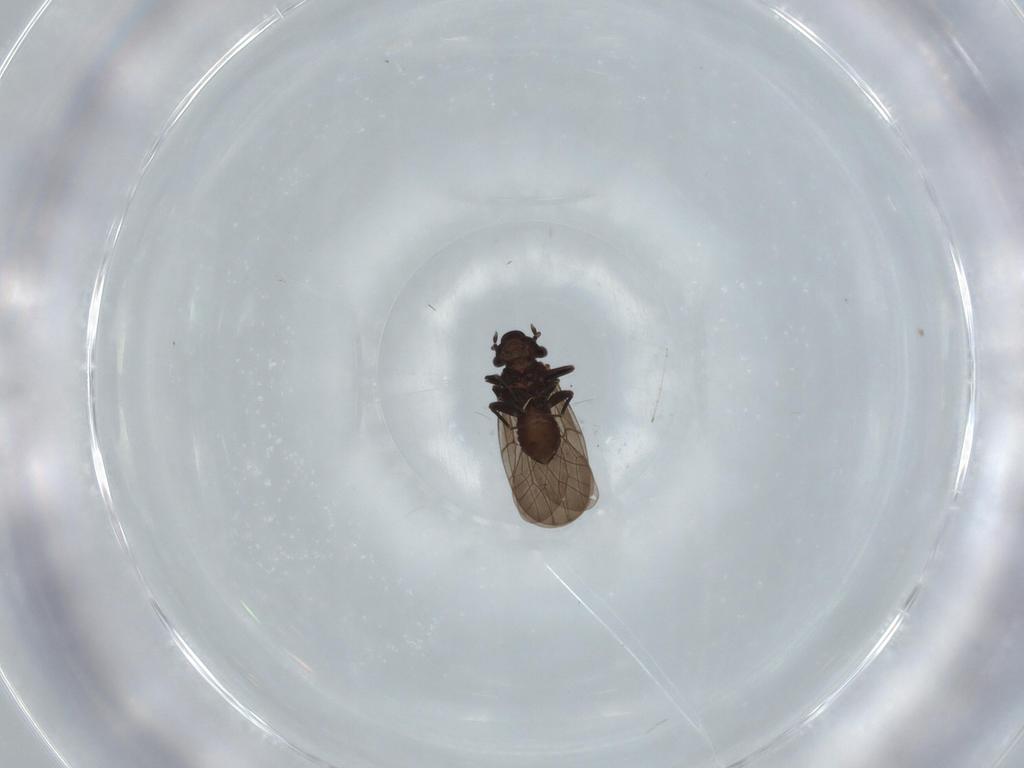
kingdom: Animalia
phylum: Arthropoda
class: Insecta
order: Psocodea
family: Lepidopsocidae
